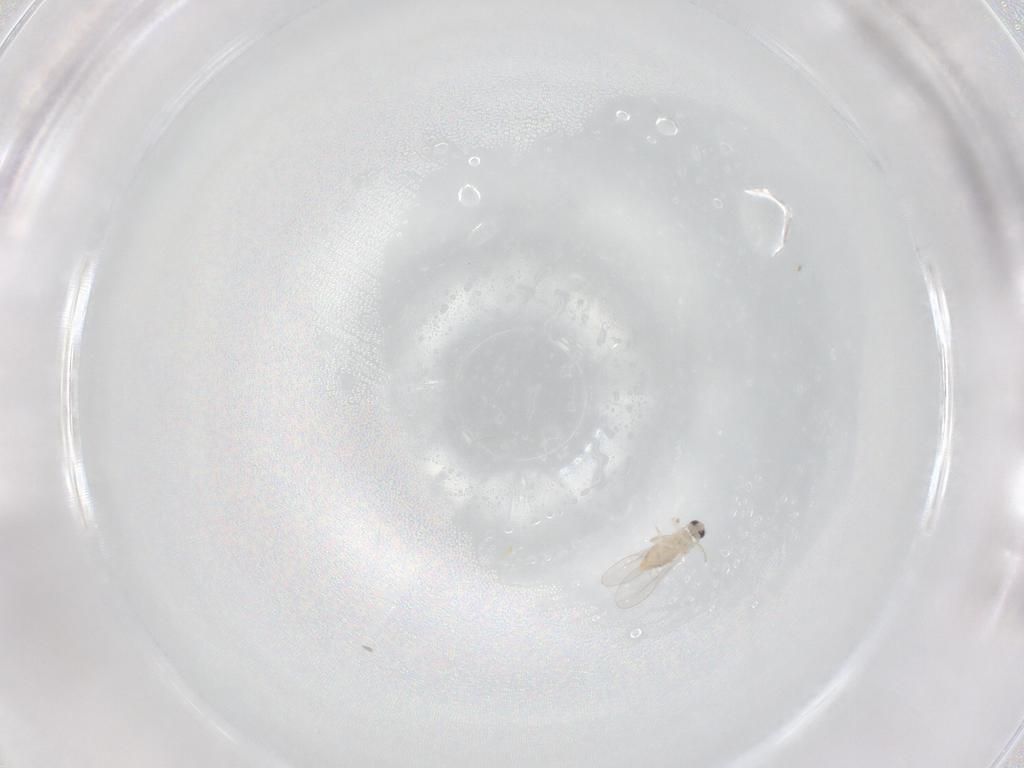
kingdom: Animalia
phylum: Arthropoda
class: Insecta
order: Diptera
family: Cecidomyiidae
